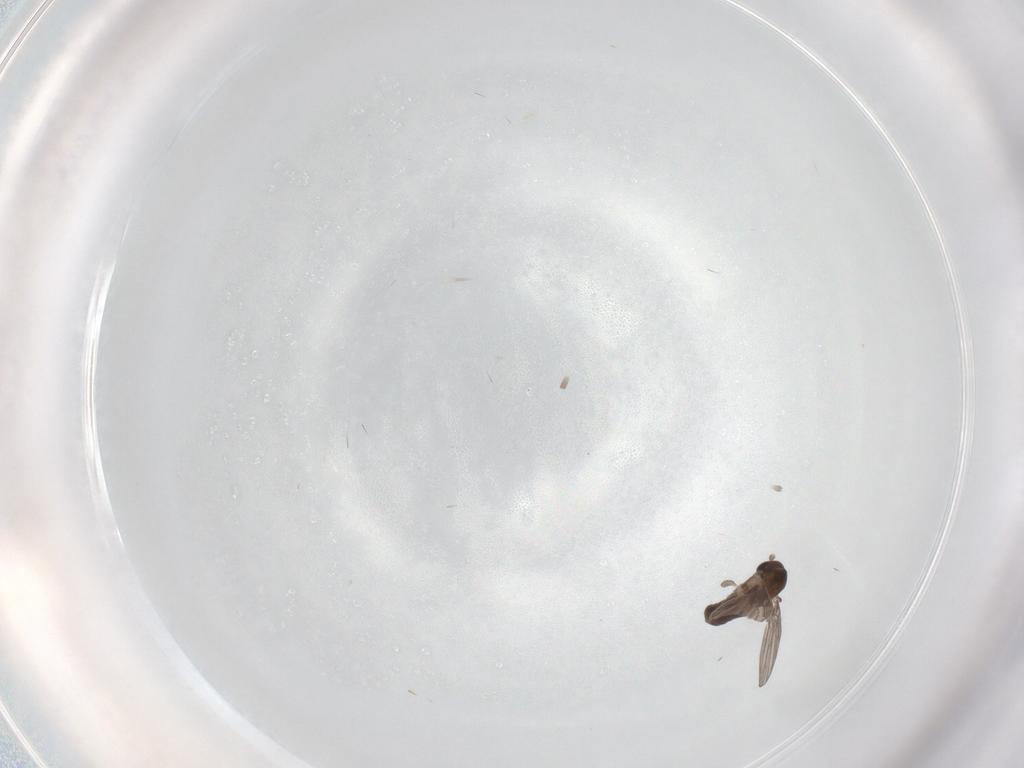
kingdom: Animalia
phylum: Arthropoda
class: Insecta
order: Diptera
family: Psychodidae
